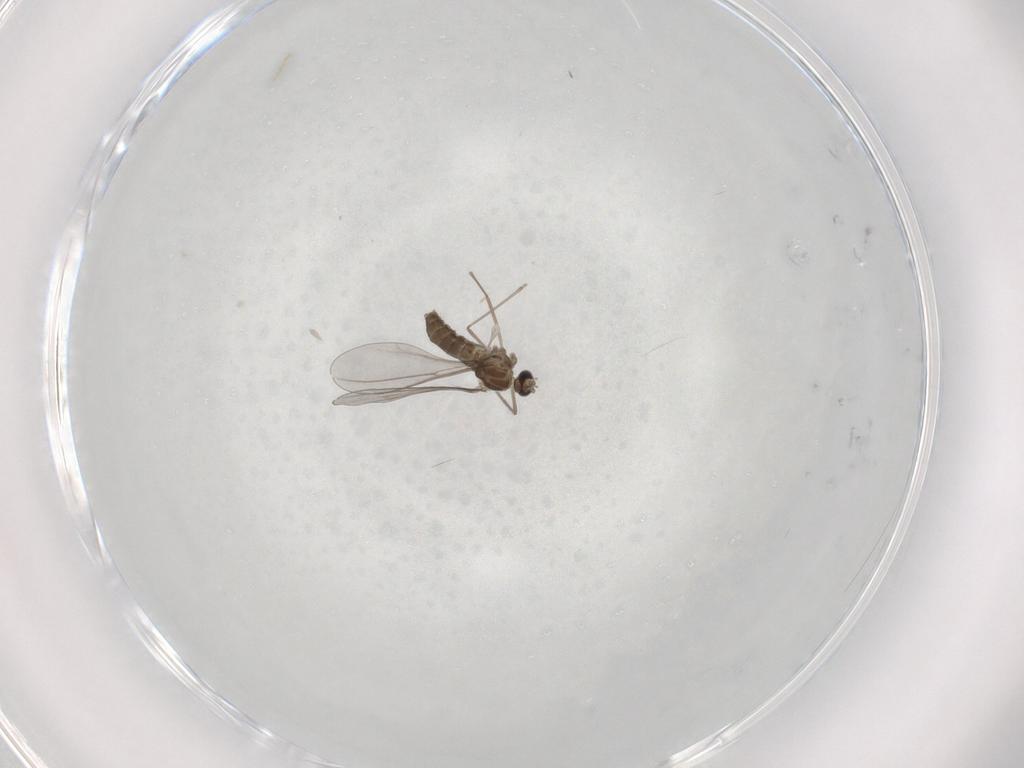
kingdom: Animalia
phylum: Arthropoda
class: Insecta
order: Diptera
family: Cecidomyiidae
